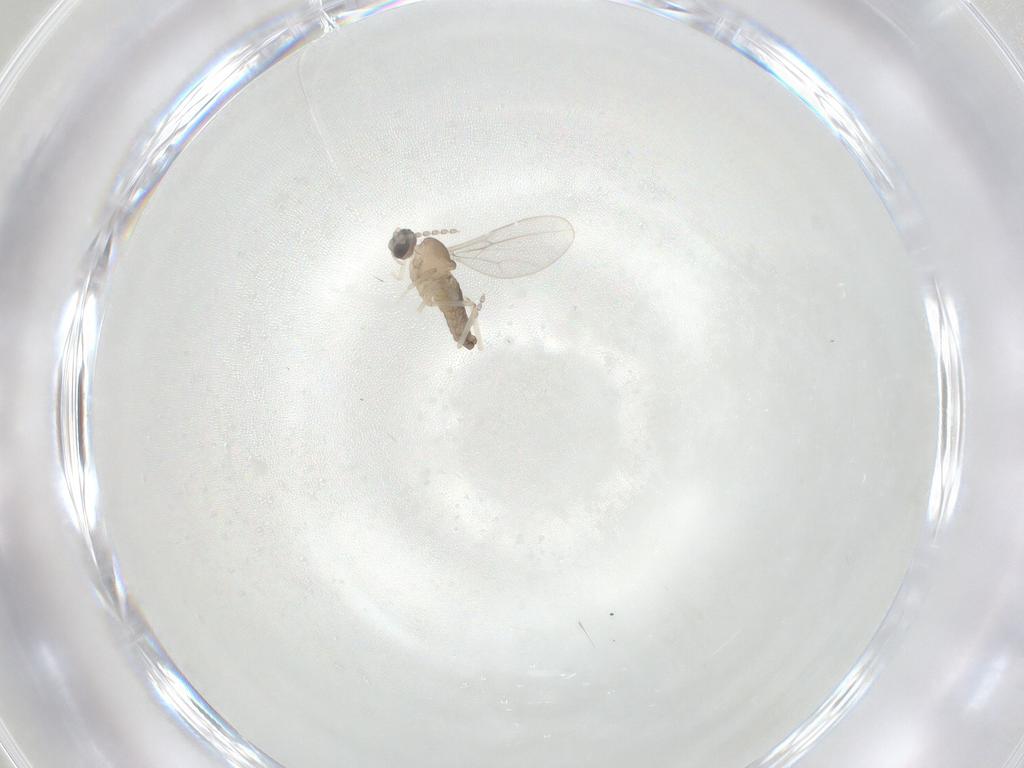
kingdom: Animalia
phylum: Arthropoda
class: Insecta
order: Diptera
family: Cecidomyiidae
